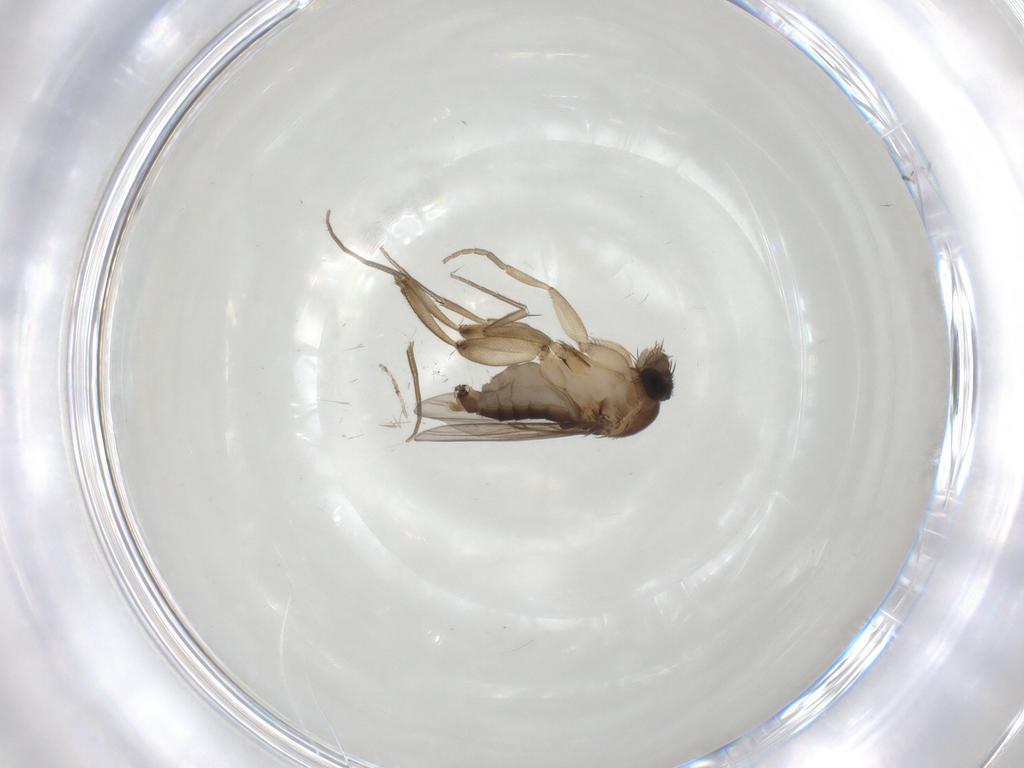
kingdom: Animalia
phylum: Arthropoda
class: Insecta
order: Diptera
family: Phoridae
